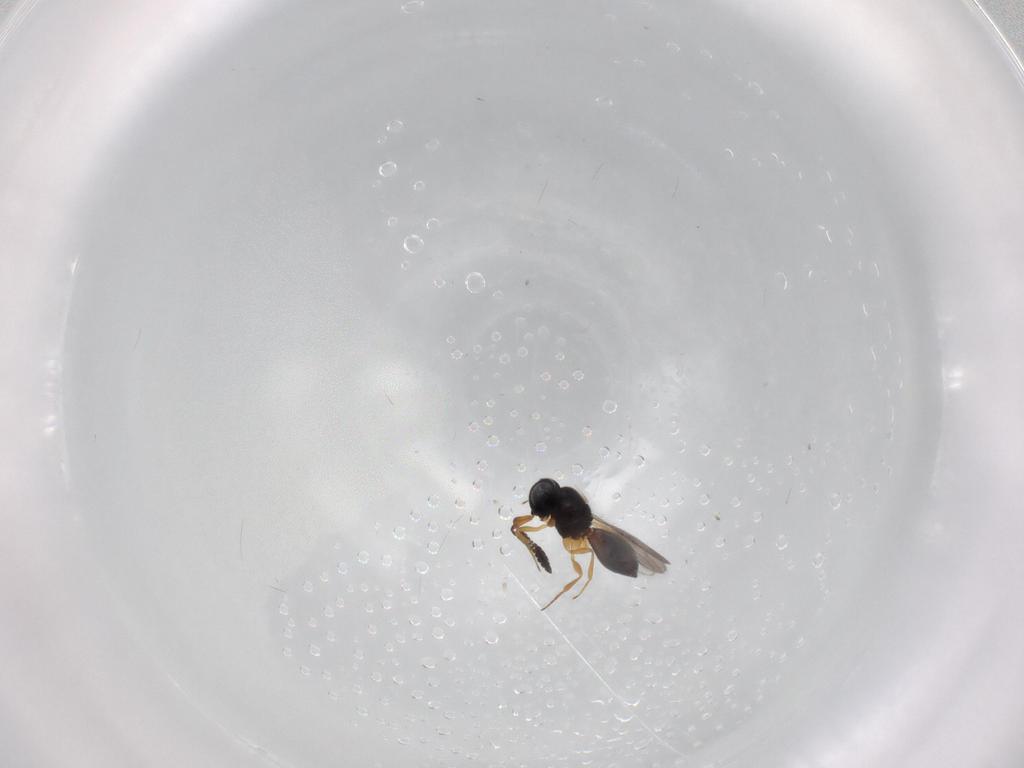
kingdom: Animalia
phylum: Arthropoda
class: Insecta
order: Hymenoptera
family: Scelionidae
